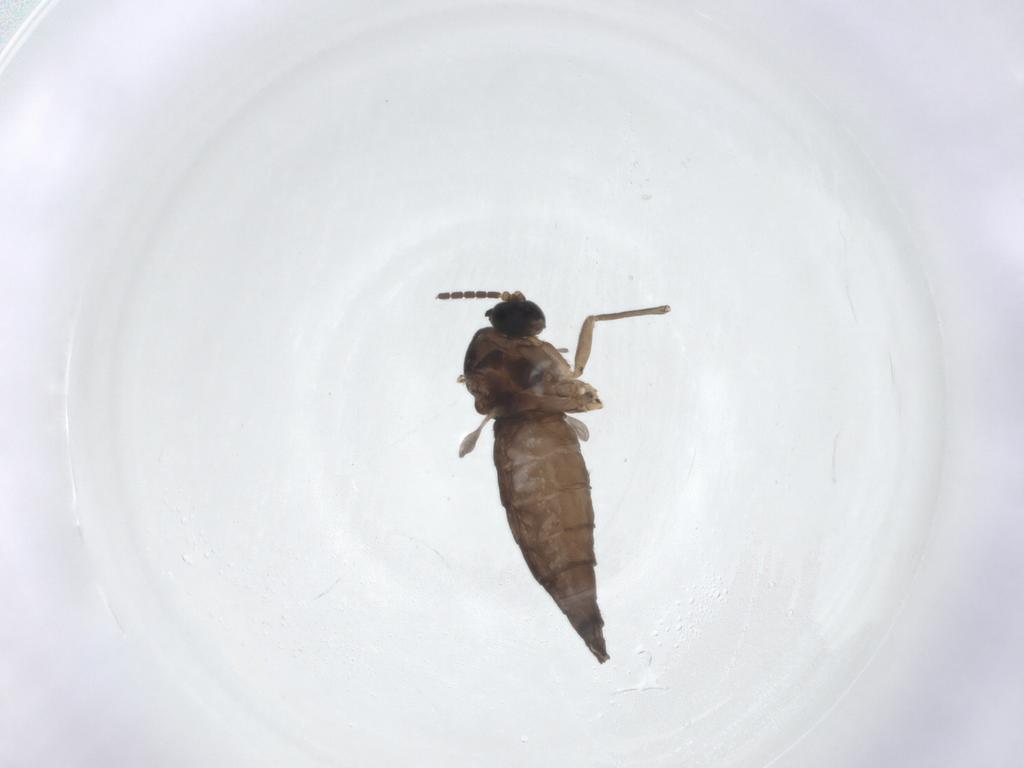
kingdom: Animalia
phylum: Arthropoda
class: Insecta
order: Diptera
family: Sciaridae
